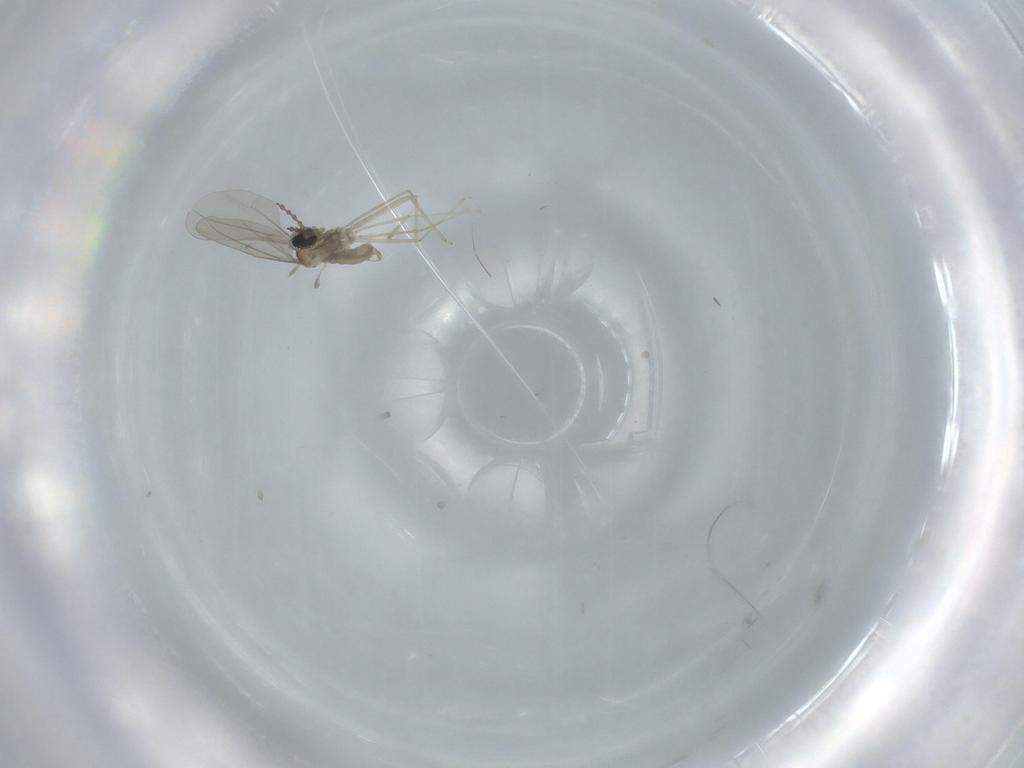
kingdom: Animalia
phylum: Arthropoda
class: Insecta
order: Diptera
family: Cecidomyiidae
